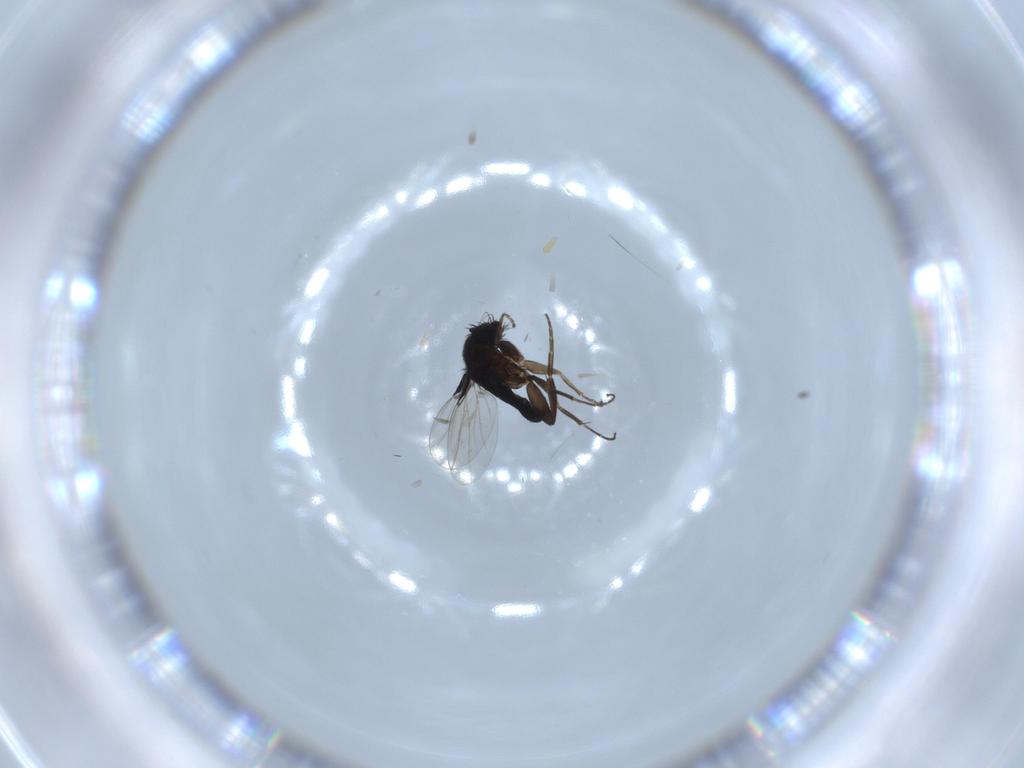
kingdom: Animalia
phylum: Arthropoda
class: Insecta
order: Diptera
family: Phoridae
